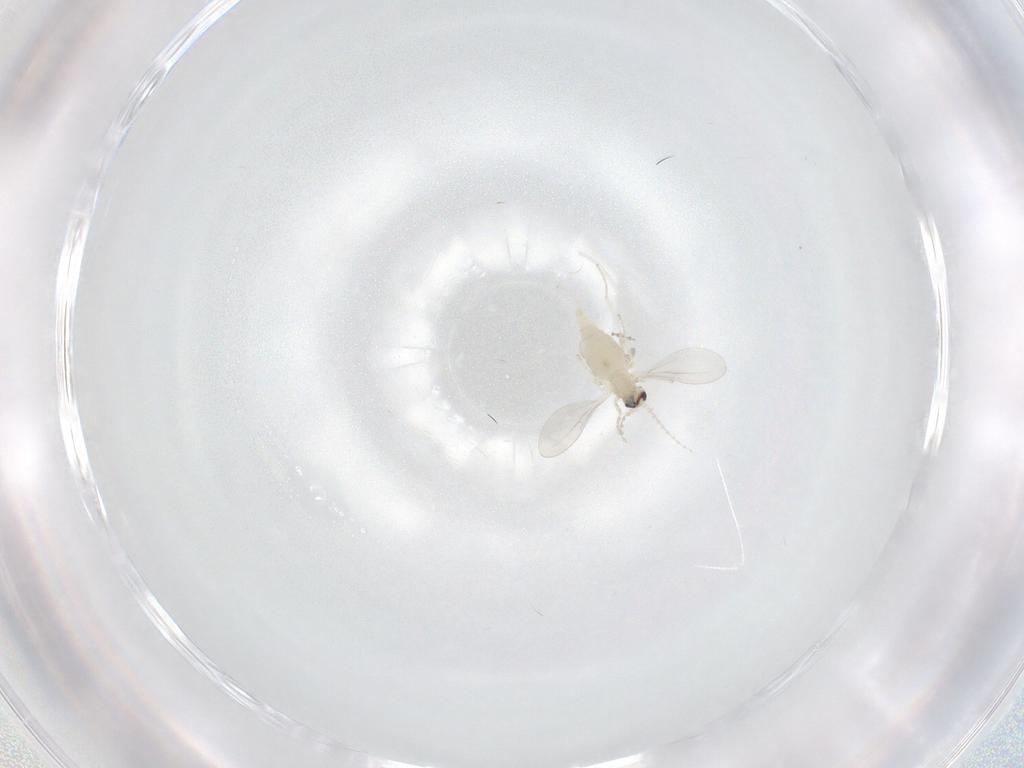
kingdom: Animalia
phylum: Arthropoda
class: Insecta
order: Diptera
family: Cecidomyiidae
